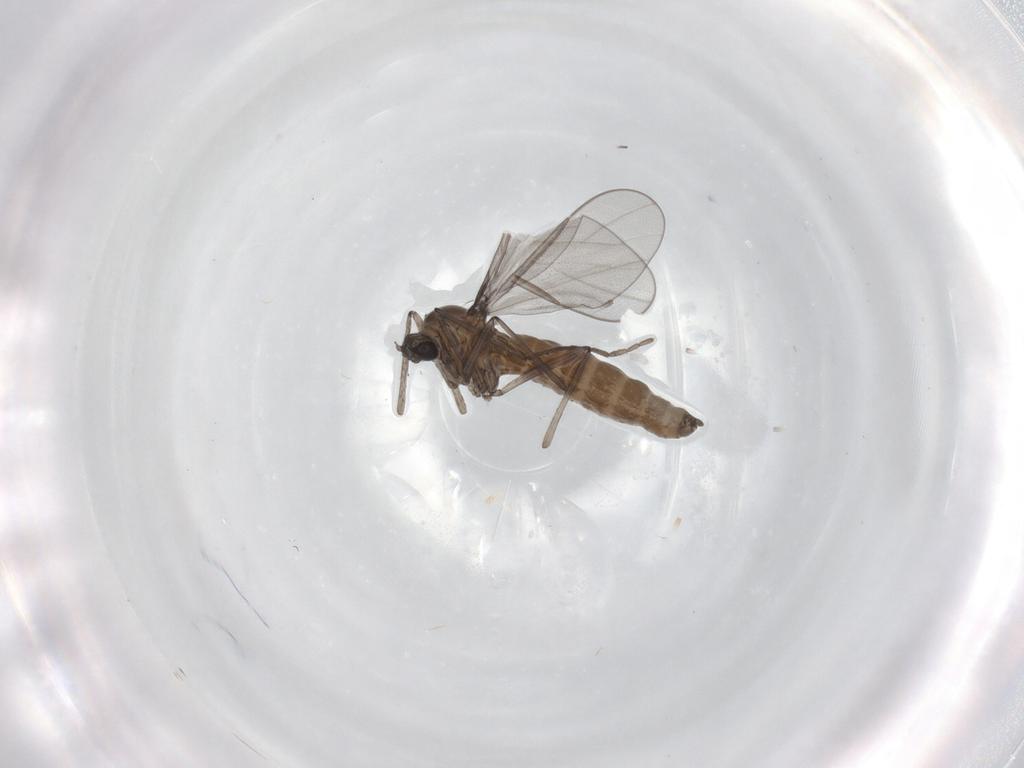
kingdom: Animalia
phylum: Arthropoda
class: Insecta
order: Diptera
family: Cecidomyiidae
